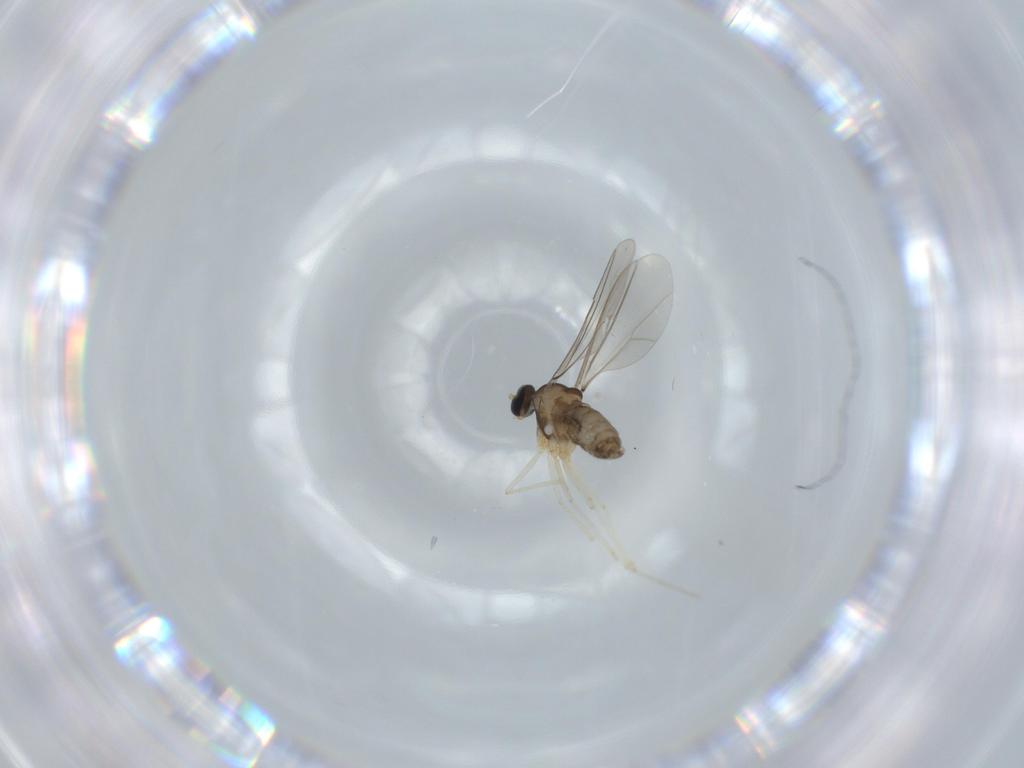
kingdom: Animalia
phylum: Arthropoda
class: Insecta
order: Diptera
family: Cecidomyiidae
